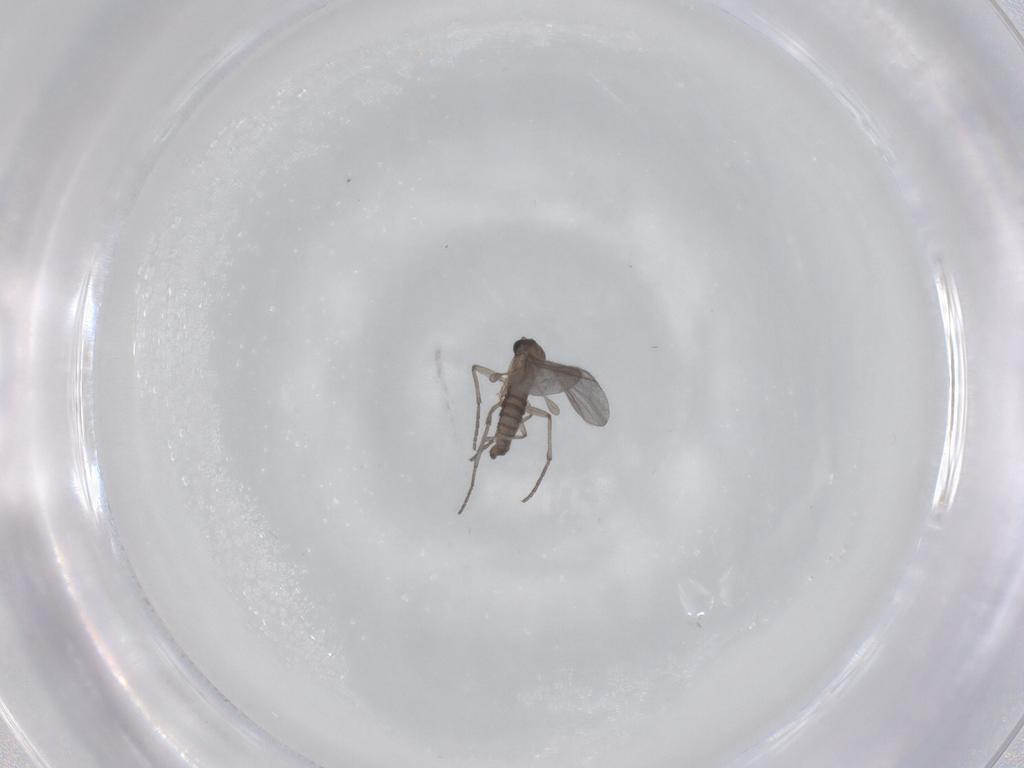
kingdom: Animalia
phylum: Arthropoda
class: Insecta
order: Diptera
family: Sciaridae
